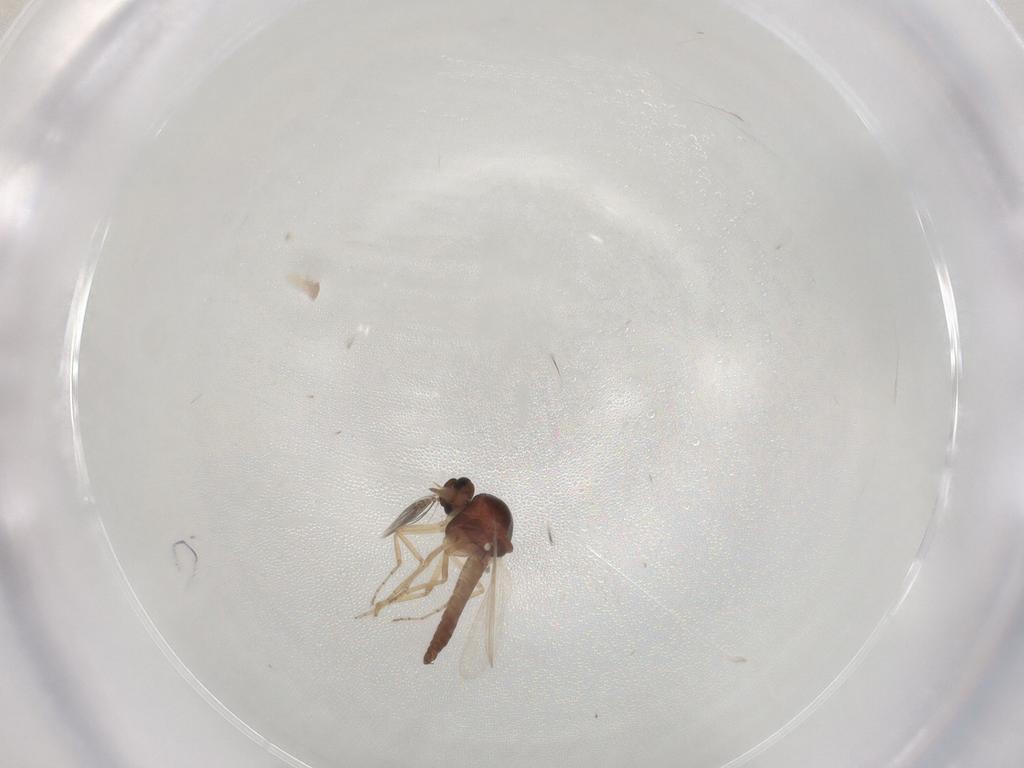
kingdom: Animalia
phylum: Arthropoda
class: Insecta
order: Diptera
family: Ceratopogonidae
